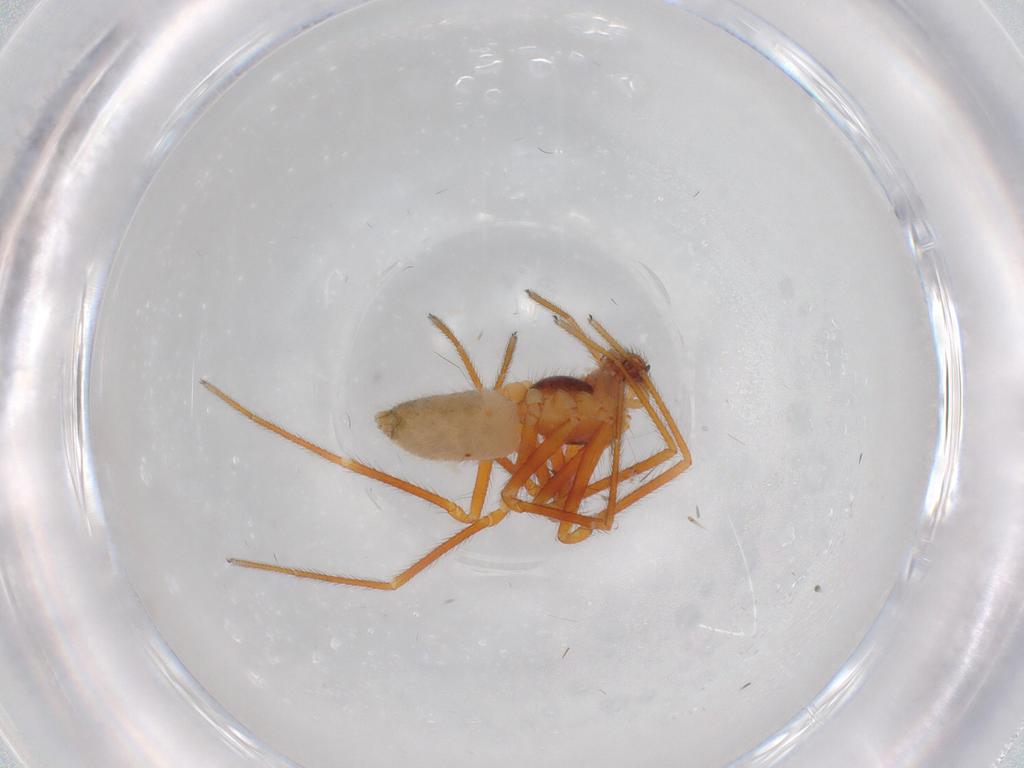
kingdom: Animalia
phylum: Arthropoda
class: Arachnida
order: Araneae
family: Linyphiidae
